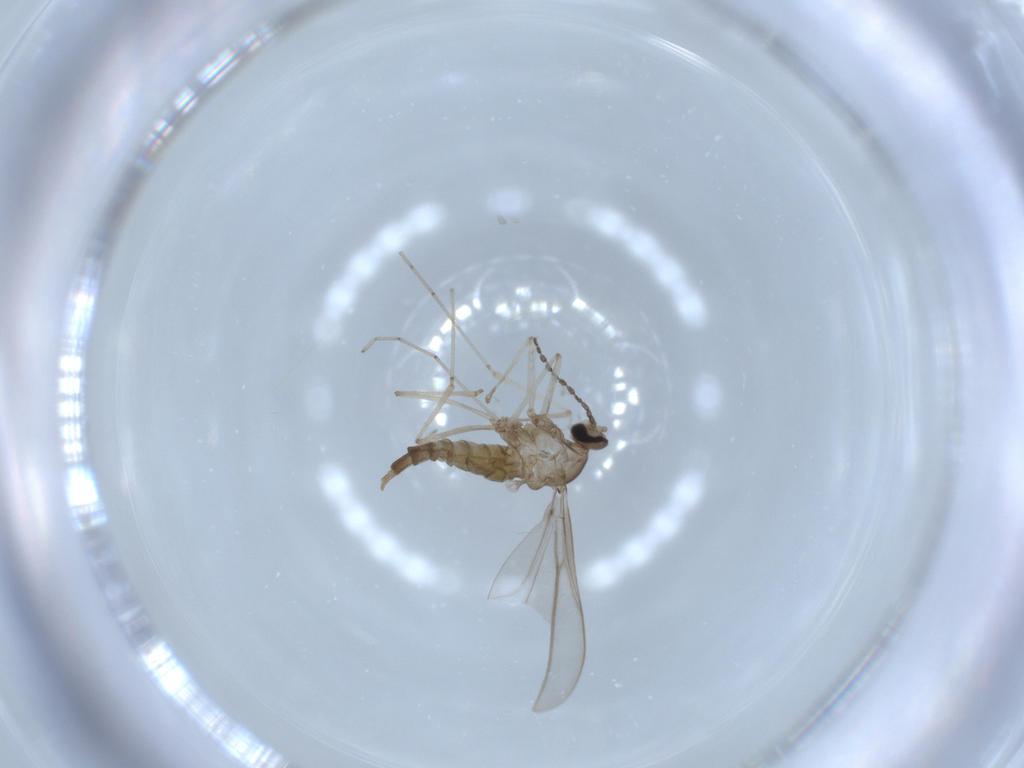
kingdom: Animalia
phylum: Arthropoda
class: Insecta
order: Diptera
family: Cecidomyiidae
